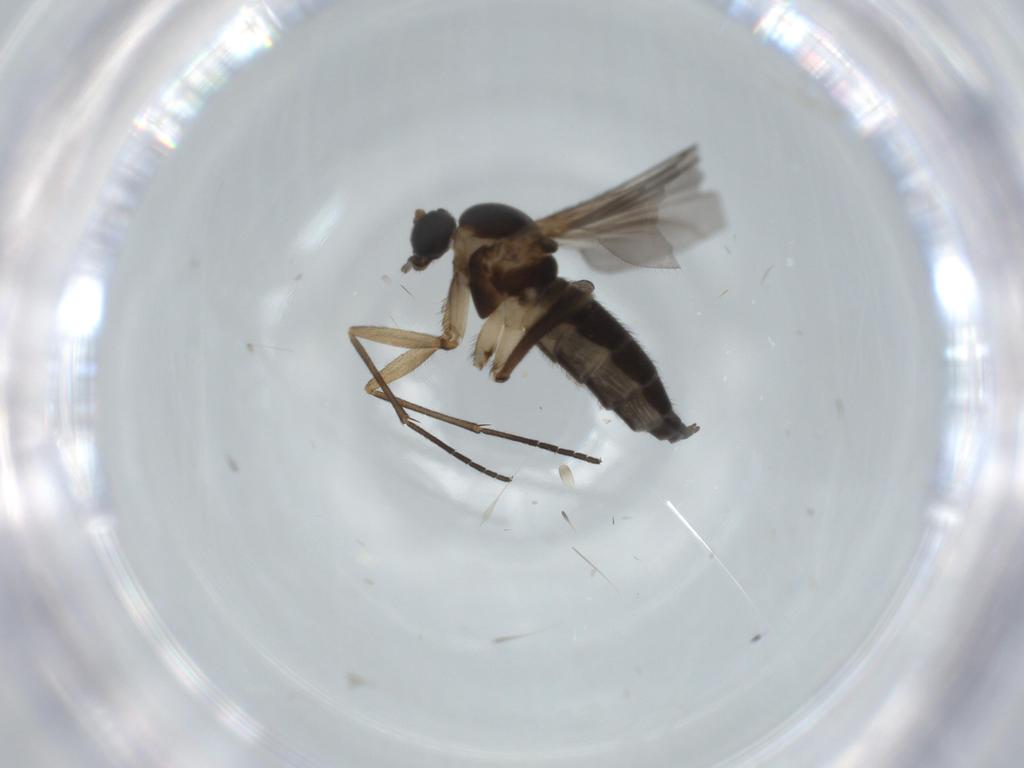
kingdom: Animalia
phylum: Arthropoda
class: Insecta
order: Diptera
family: Sciaridae
